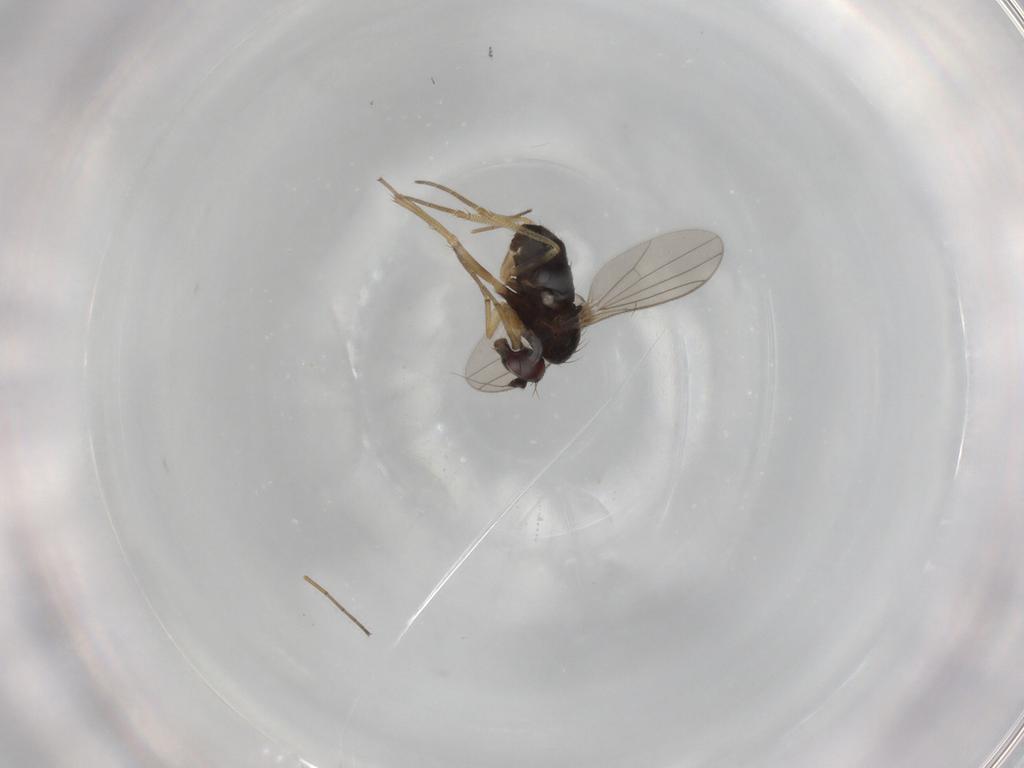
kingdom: Animalia
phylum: Arthropoda
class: Insecta
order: Diptera
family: Dolichopodidae
